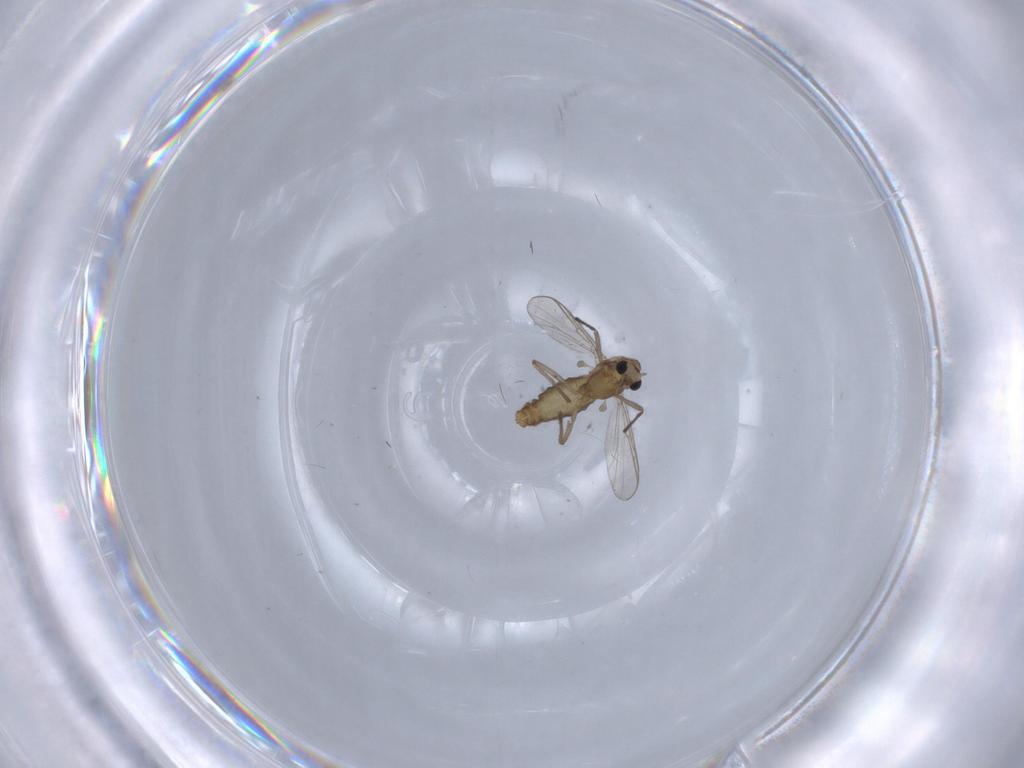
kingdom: Animalia
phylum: Arthropoda
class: Insecta
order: Diptera
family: Chironomidae
